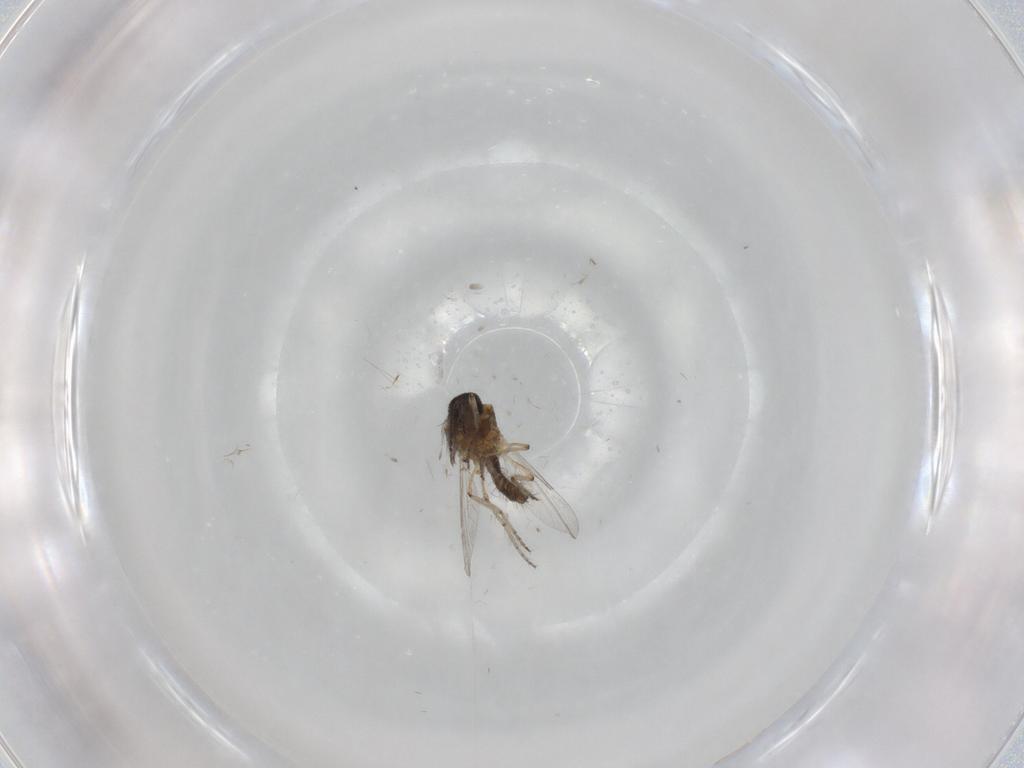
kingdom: Animalia
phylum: Arthropoda
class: Insecta
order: Diptera
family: Ceratopogonidae
